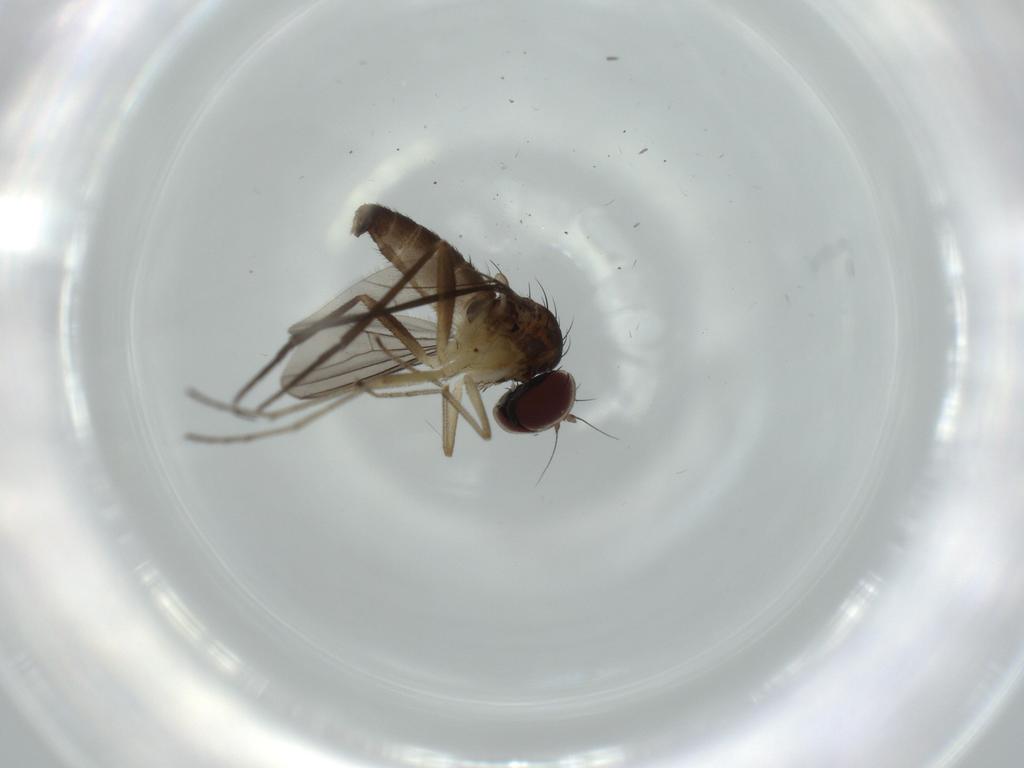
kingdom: Animalia
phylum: Arthropoda
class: Insecta
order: Diptera
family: Dolichopodidae
